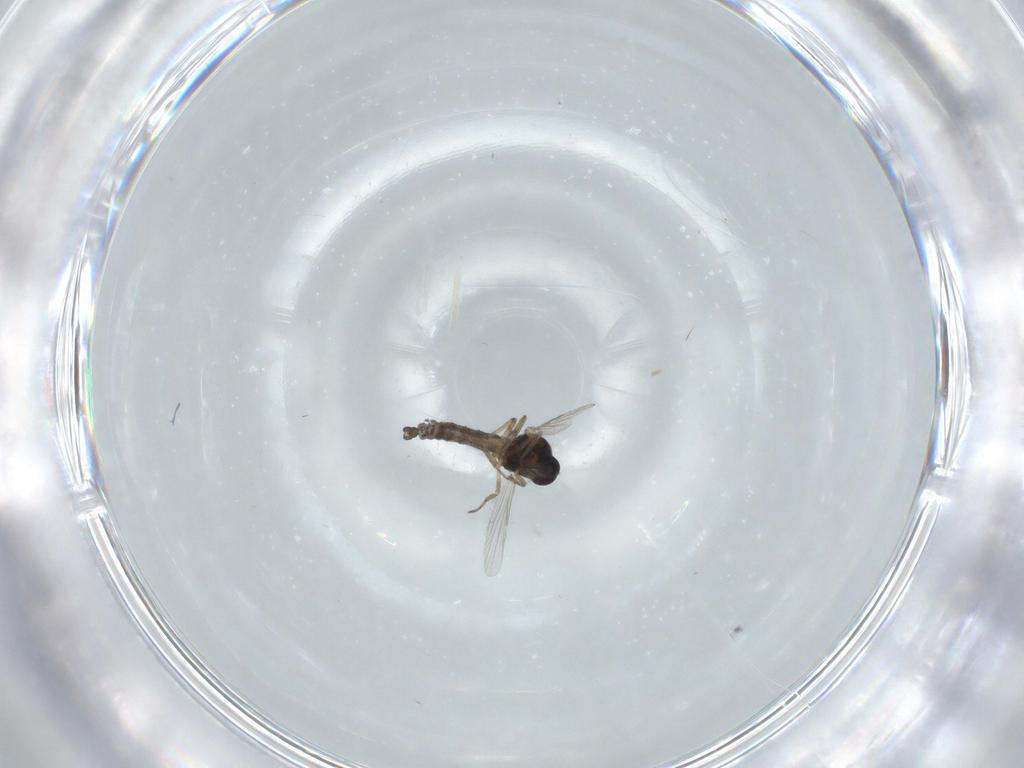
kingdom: Animalia
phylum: Arthropoda
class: Insecta
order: Diptera
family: Ceratopogonidae
